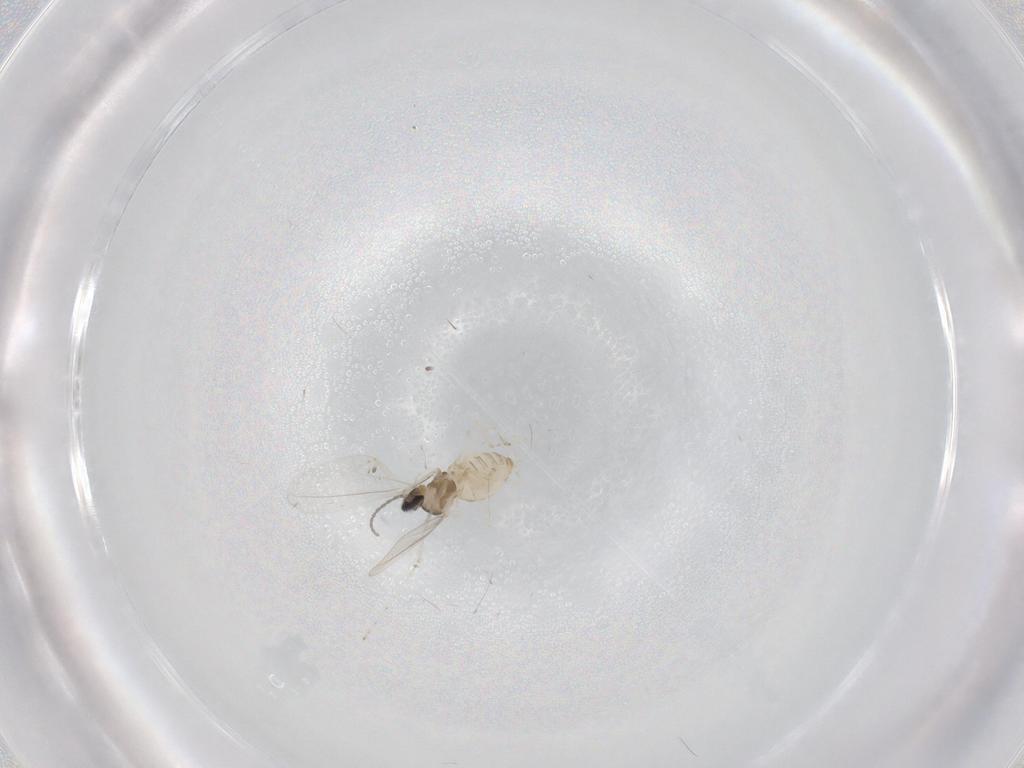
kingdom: Animalia
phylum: Arthropoda
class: Insecta
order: Diptera
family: Cecidomyiidae
